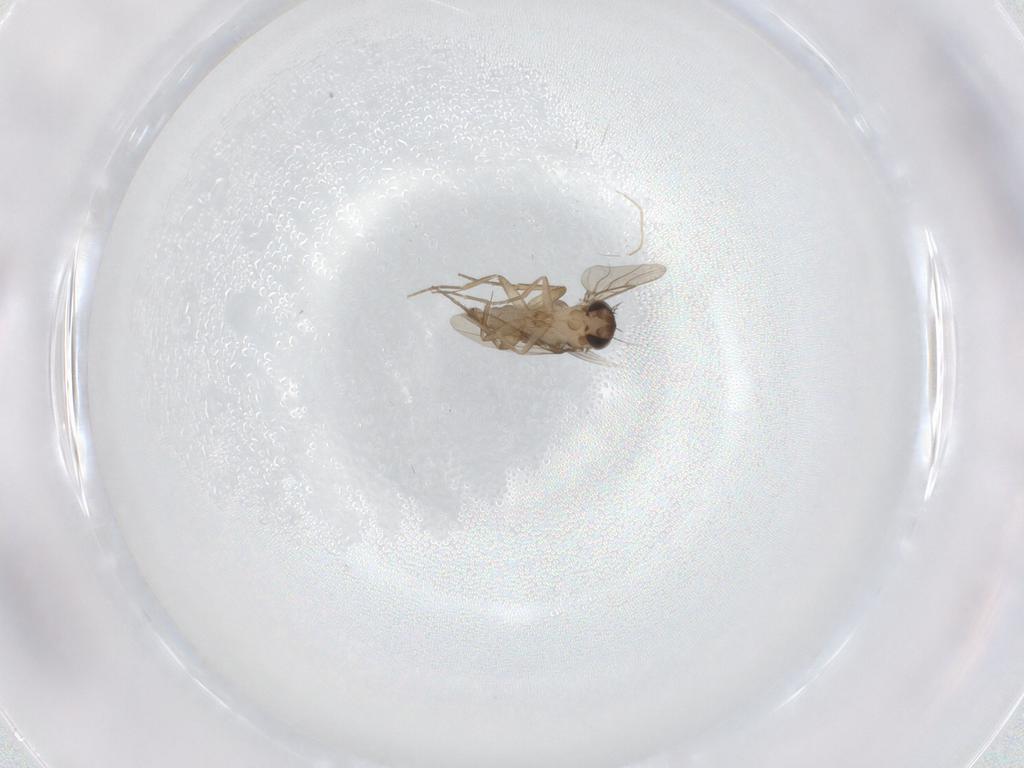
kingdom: Animalia
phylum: Arthropoda
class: Insecta
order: Diptera
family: Phoridae
